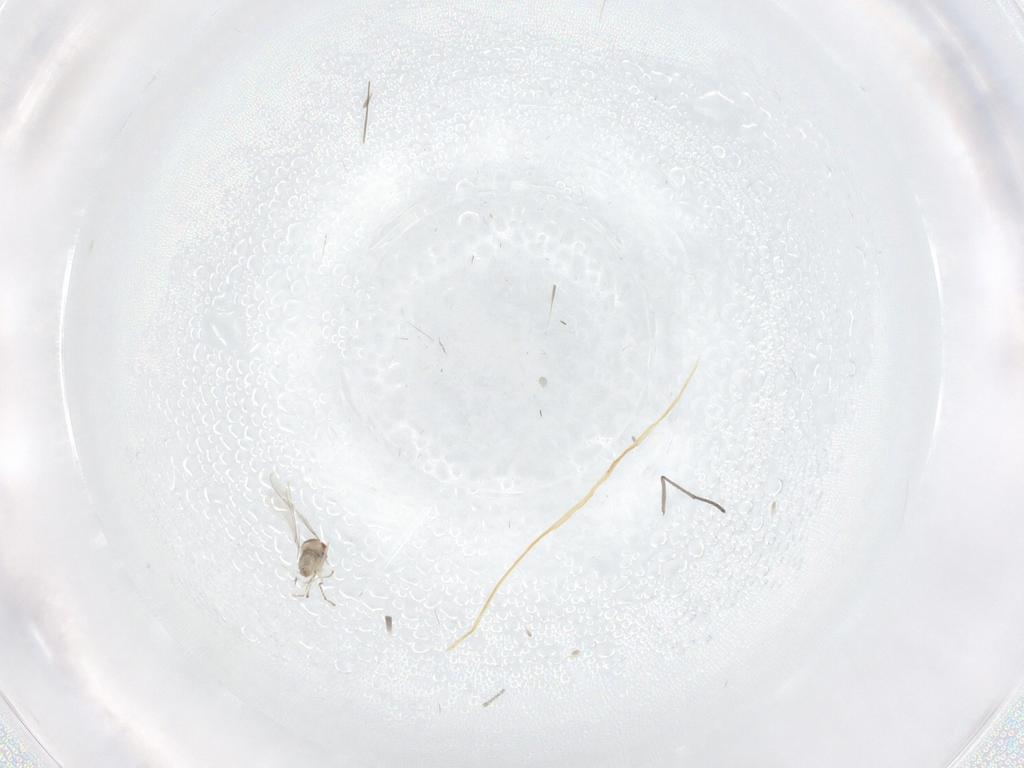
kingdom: Animalia
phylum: Arthropoda
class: Insecta
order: Diptera
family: Sciaridae
